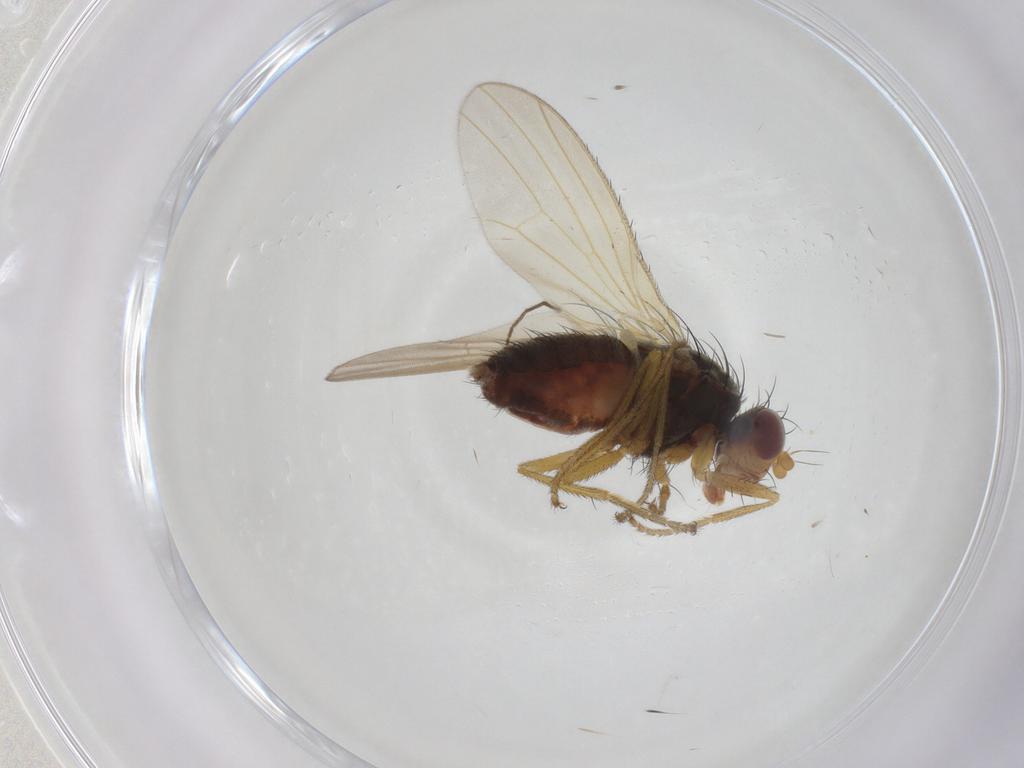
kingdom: Animalia
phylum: Arthropoda
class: Insecta
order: Diptera
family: Heleomyzidae
